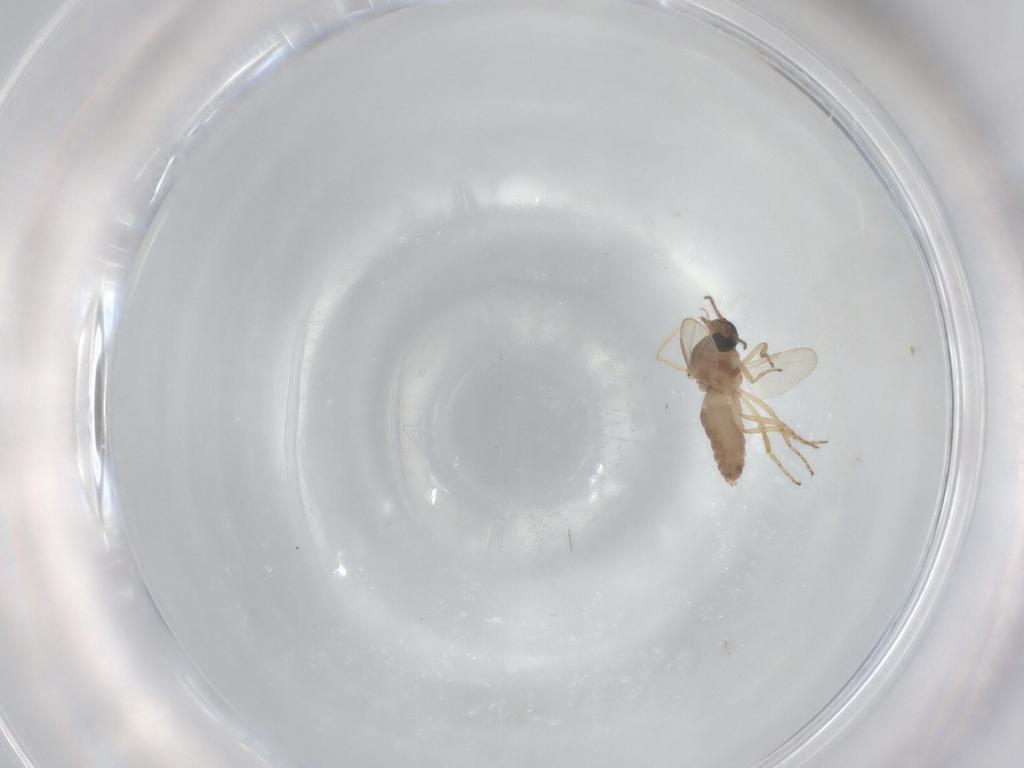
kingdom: Animalia
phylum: Arthropoda
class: Insecta
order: Diptera
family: Ceratopogonidae
